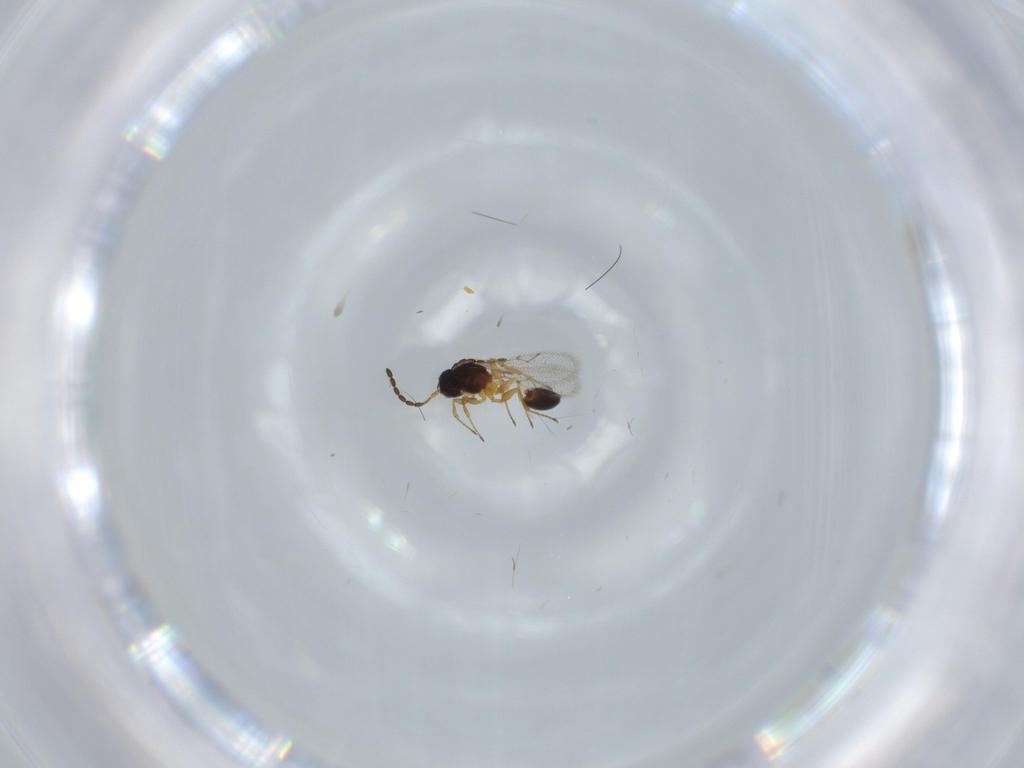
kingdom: Animalia
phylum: Arthropoda
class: Insecta
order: Hymenoptera
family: Figitidae
